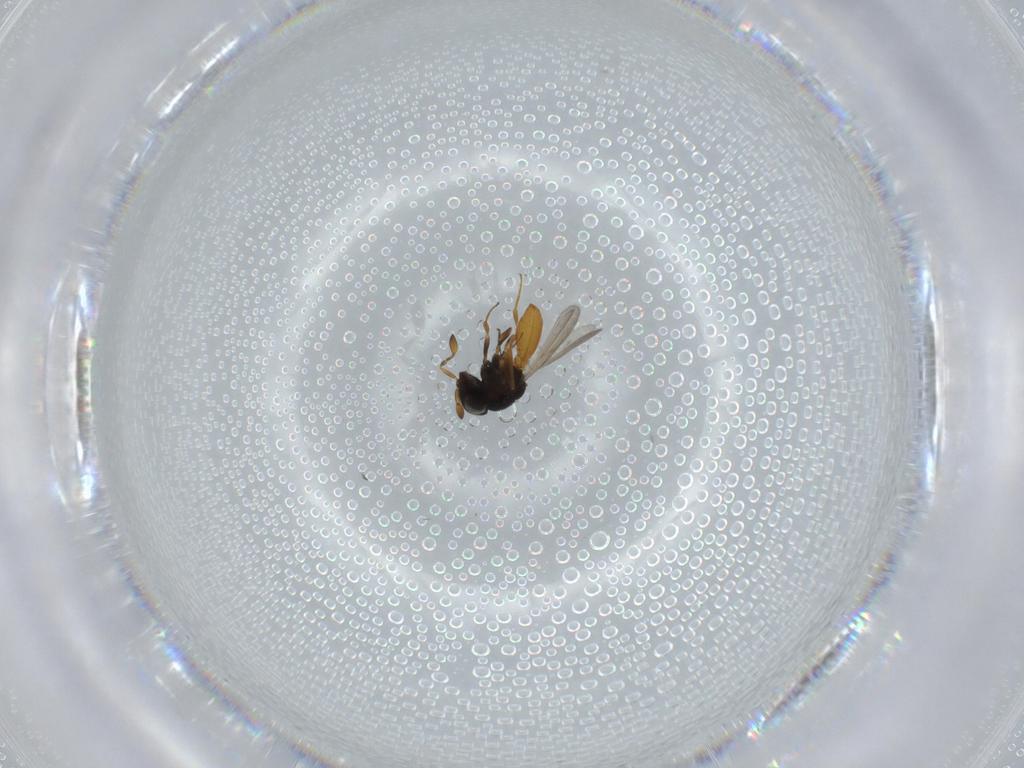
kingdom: Animalia
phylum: Arthropoda
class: Insecta
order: Hymenoptera
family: Scelionidae
